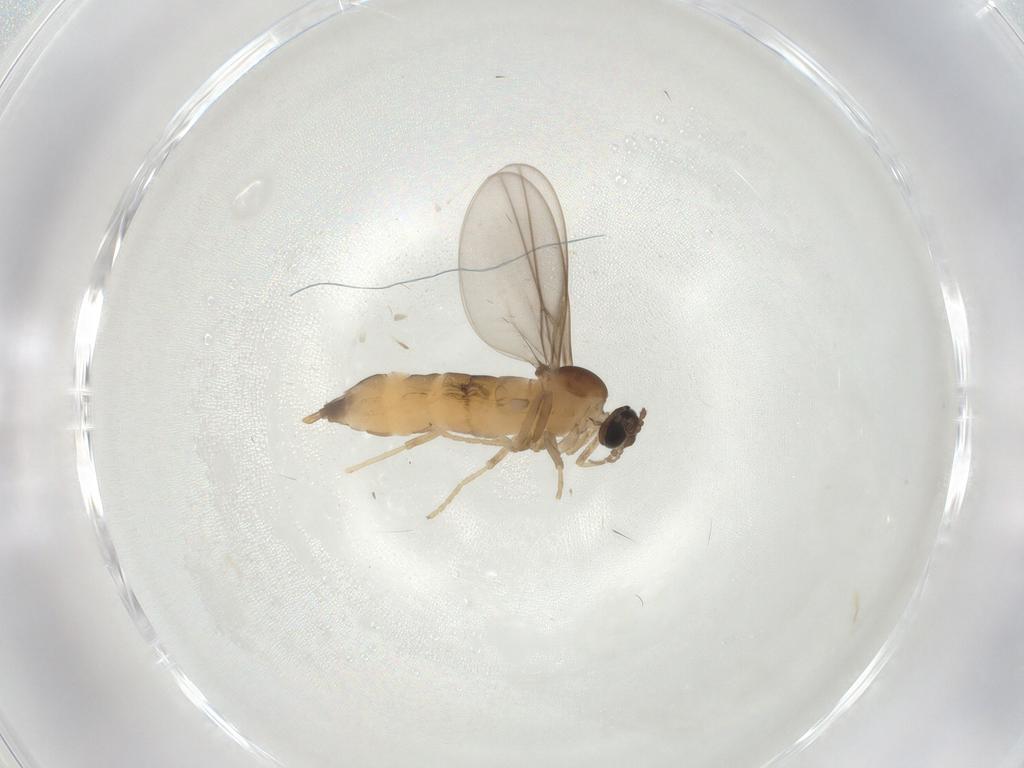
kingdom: Animalia
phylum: Arthropoda
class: Insecta
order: Diptera
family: Cecidomyiidae
